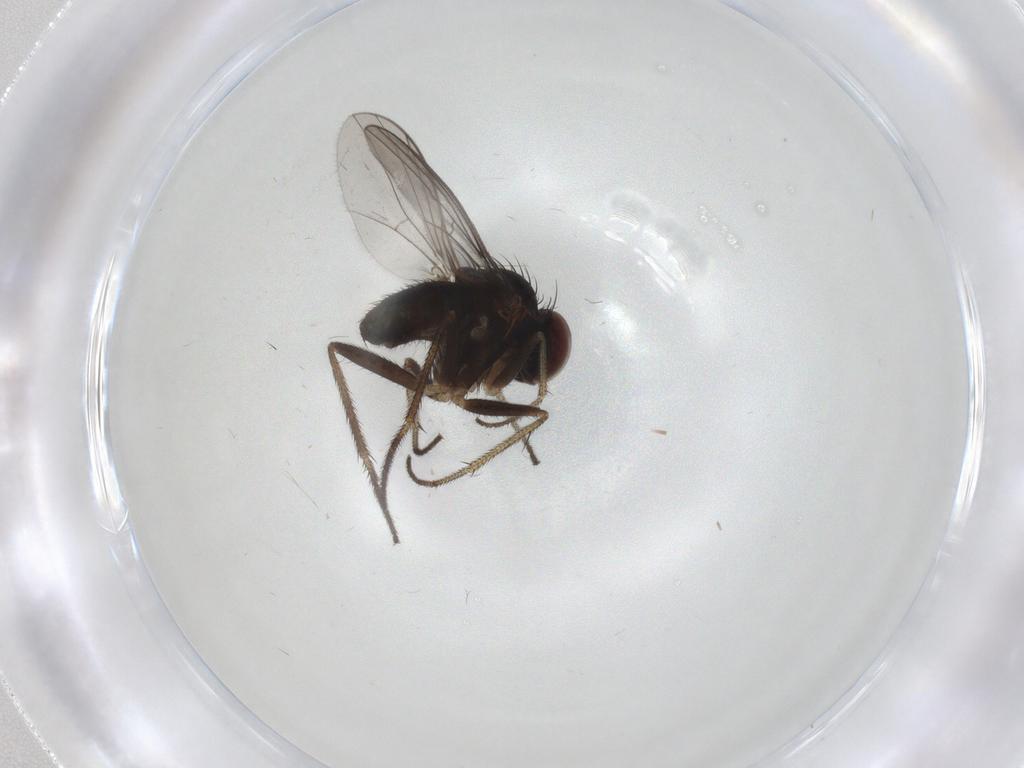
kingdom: Animalia
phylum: Arthropoda
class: Insecta
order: Diptera
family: Dolichopodidae
